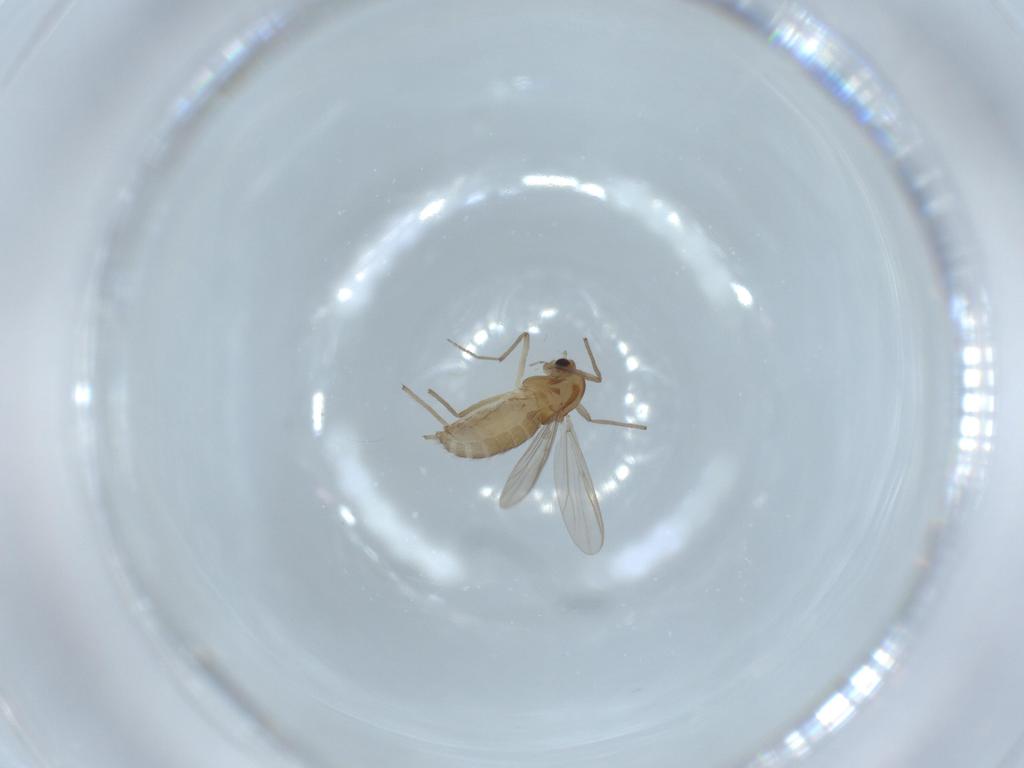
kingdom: Animalia
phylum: Arthropoda
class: Insecta
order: Diptera
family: Chironomidae
